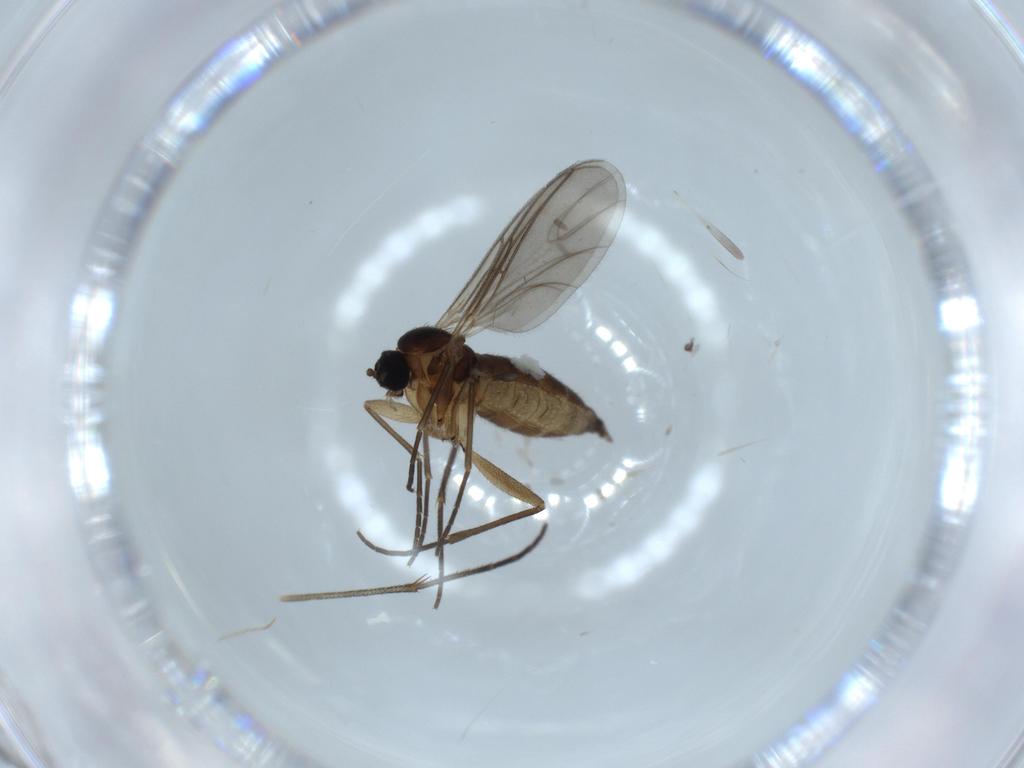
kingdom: Animalia
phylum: Arthropoda
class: Insecta
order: Diptera
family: Sciaridae
